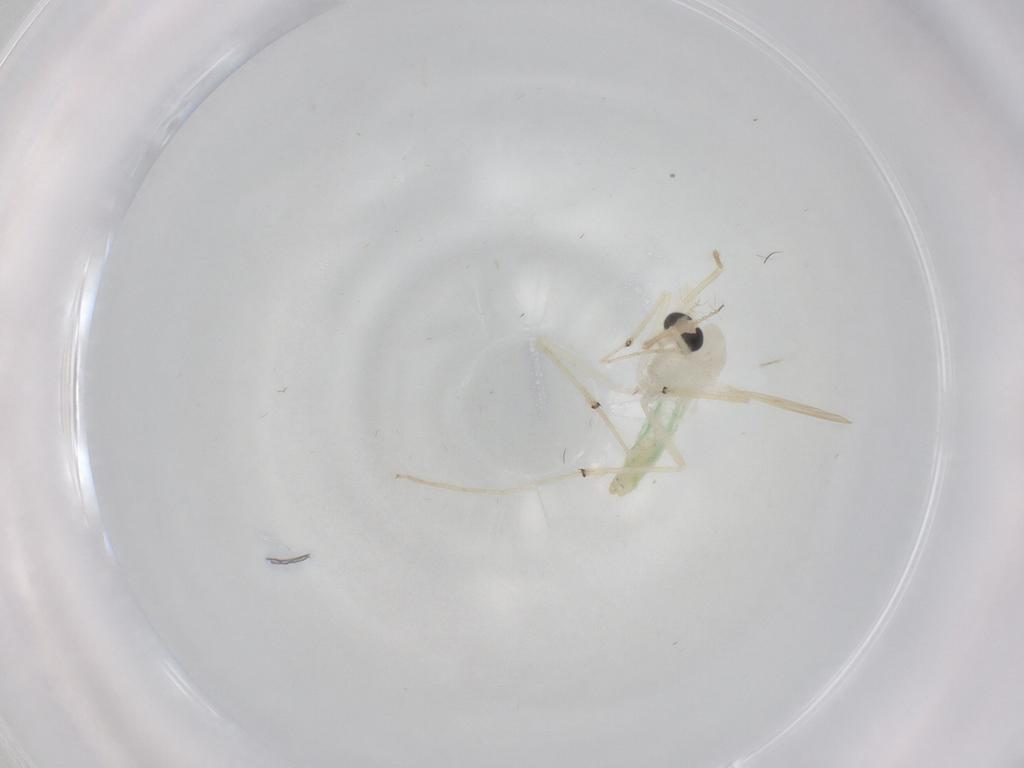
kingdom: Animalia
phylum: Arthropoda
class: Insecta
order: Diptera
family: Chironomidae
